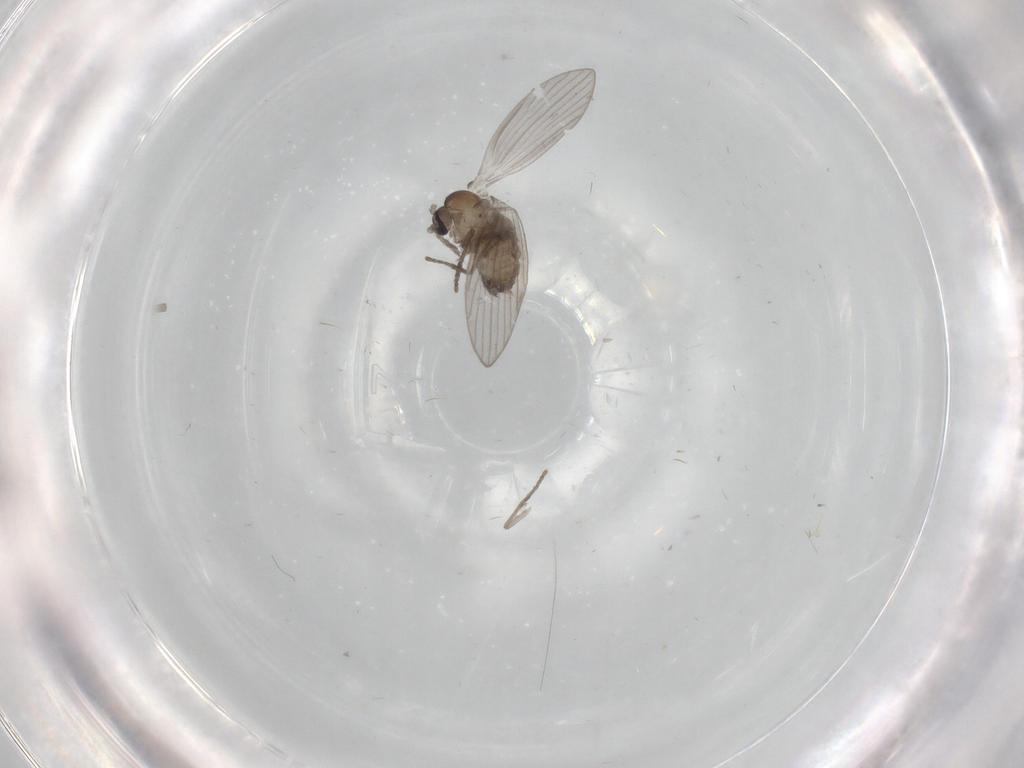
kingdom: Animalia
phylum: Arthropoda
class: Insecta
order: Diptera
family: Psychodidae
